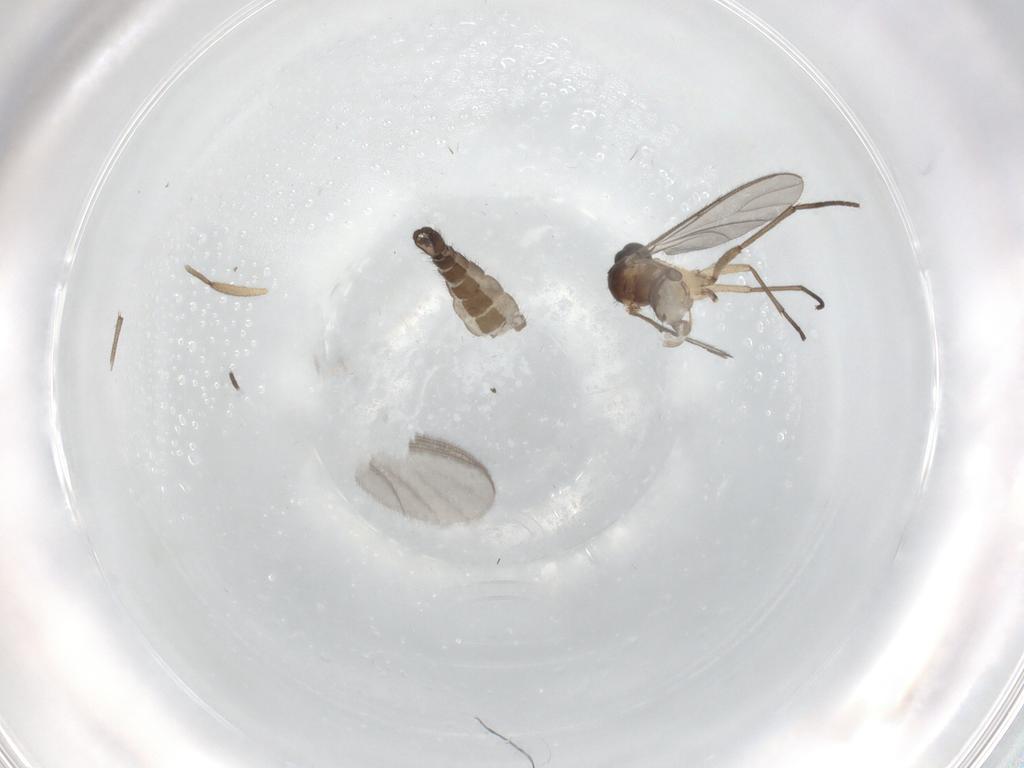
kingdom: Animalia
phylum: Arthropoda
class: Insecta
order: Diptera
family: Sciaridae
